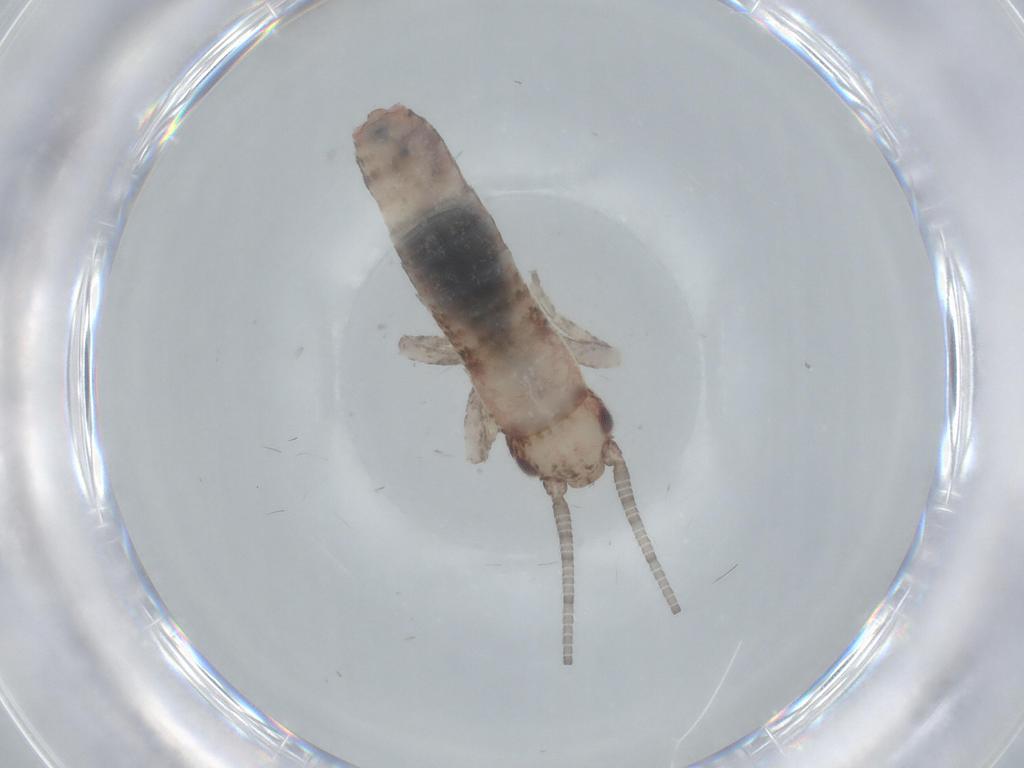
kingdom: Animalia
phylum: Arthropoda
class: Insecta
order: Orthoptera
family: Mogoplistidae
